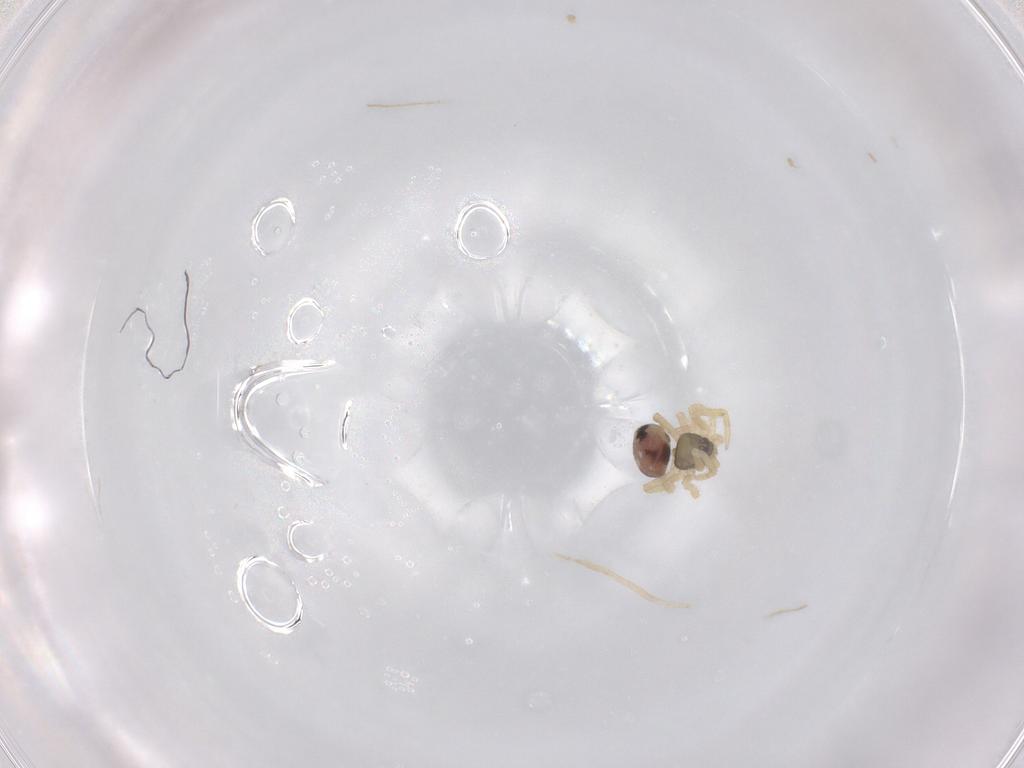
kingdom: Animalia
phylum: Arthropoda
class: Arachnida
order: Araneae
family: Theridiidae
